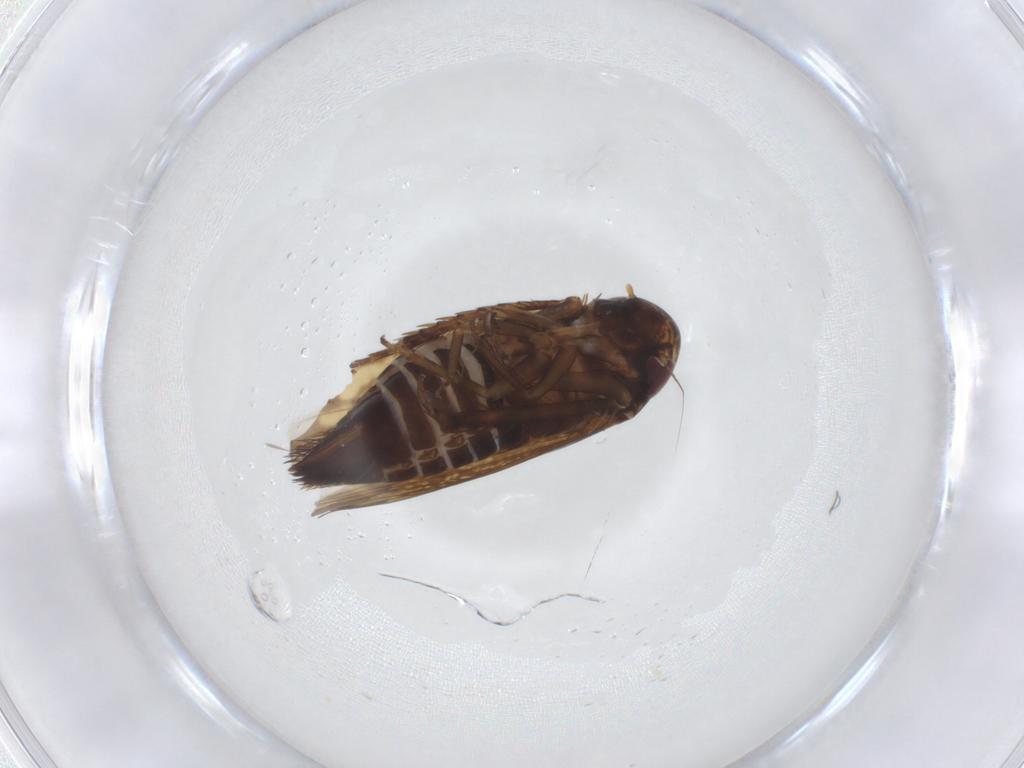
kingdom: Animalia
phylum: Arthropoda
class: Insecta
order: Hemiptera
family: Cicadellidae
